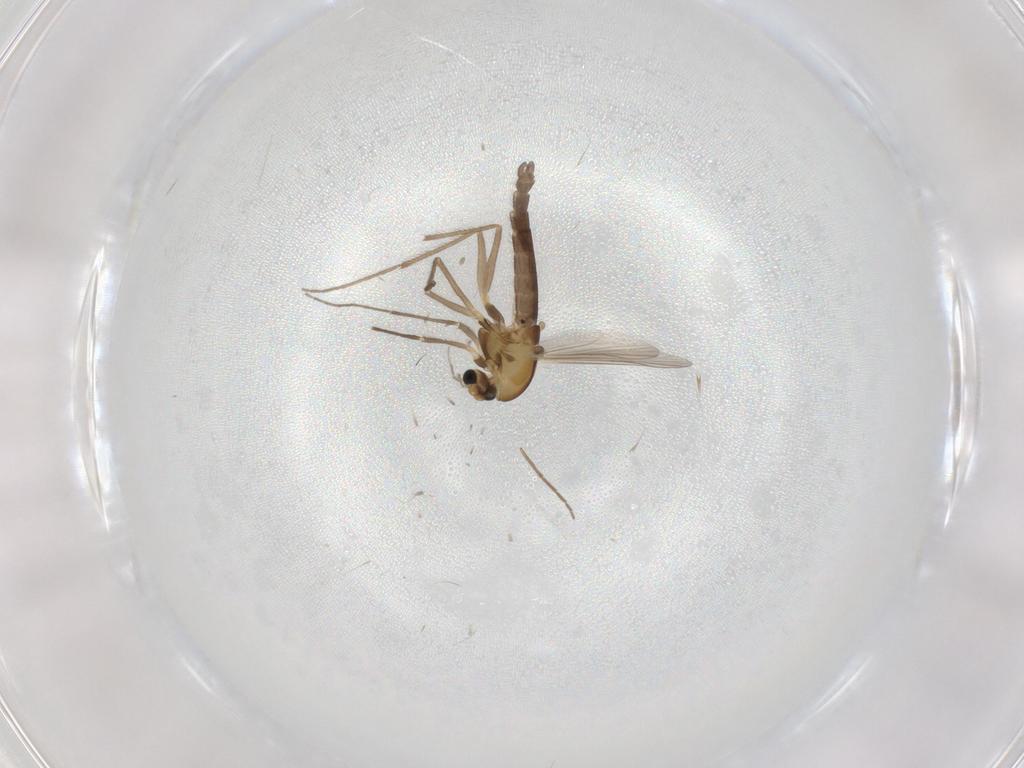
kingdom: Animalia
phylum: Arthropoda
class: Insecta
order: Diptera
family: Chironomidae
